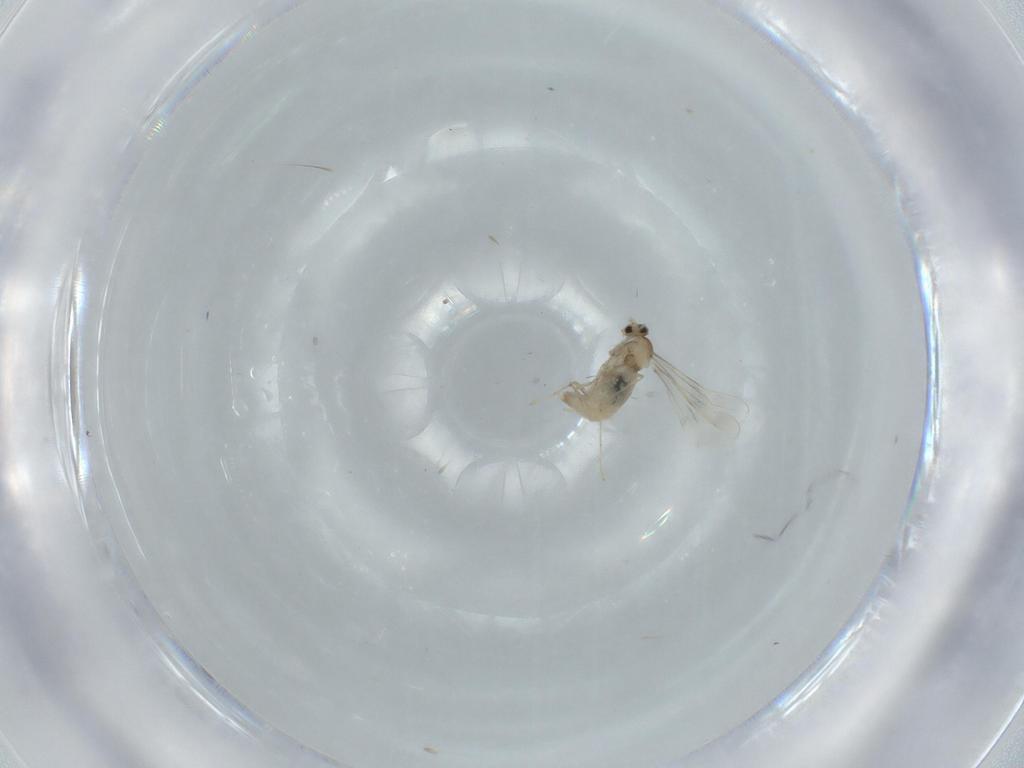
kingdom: Animalia
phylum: Arthropoda
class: Insecta
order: Diptera
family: Cecidomyiidae
